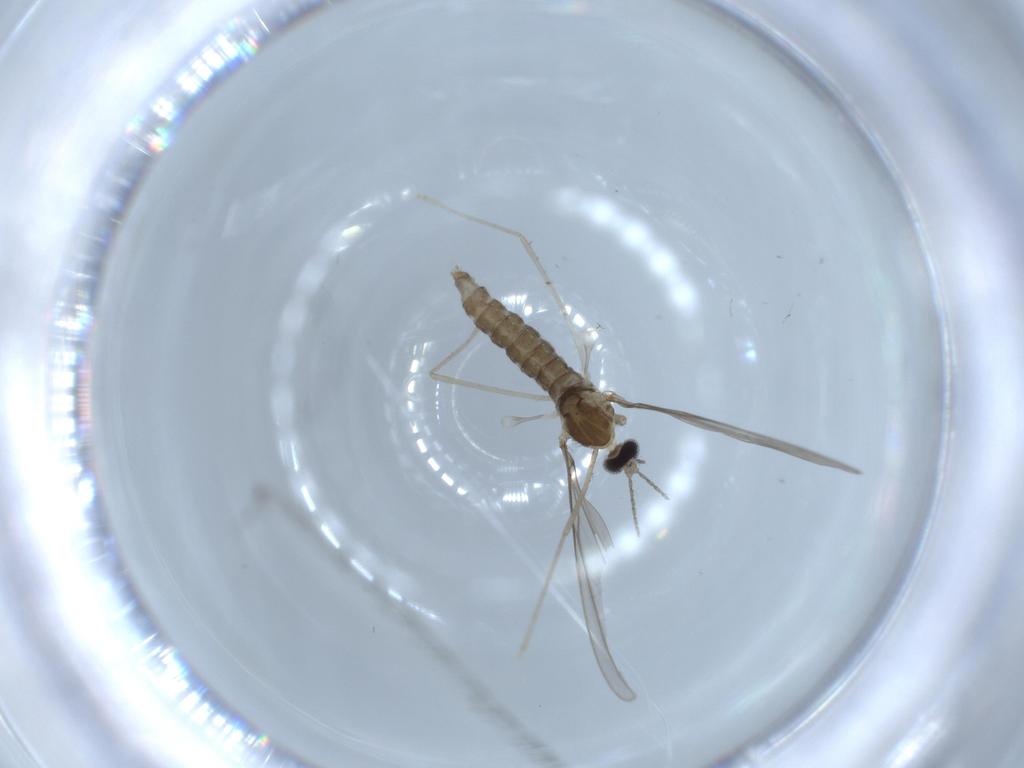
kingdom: Animalia
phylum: Arthropoda
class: Insecta
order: Diptera
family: Cecidomyiidae
